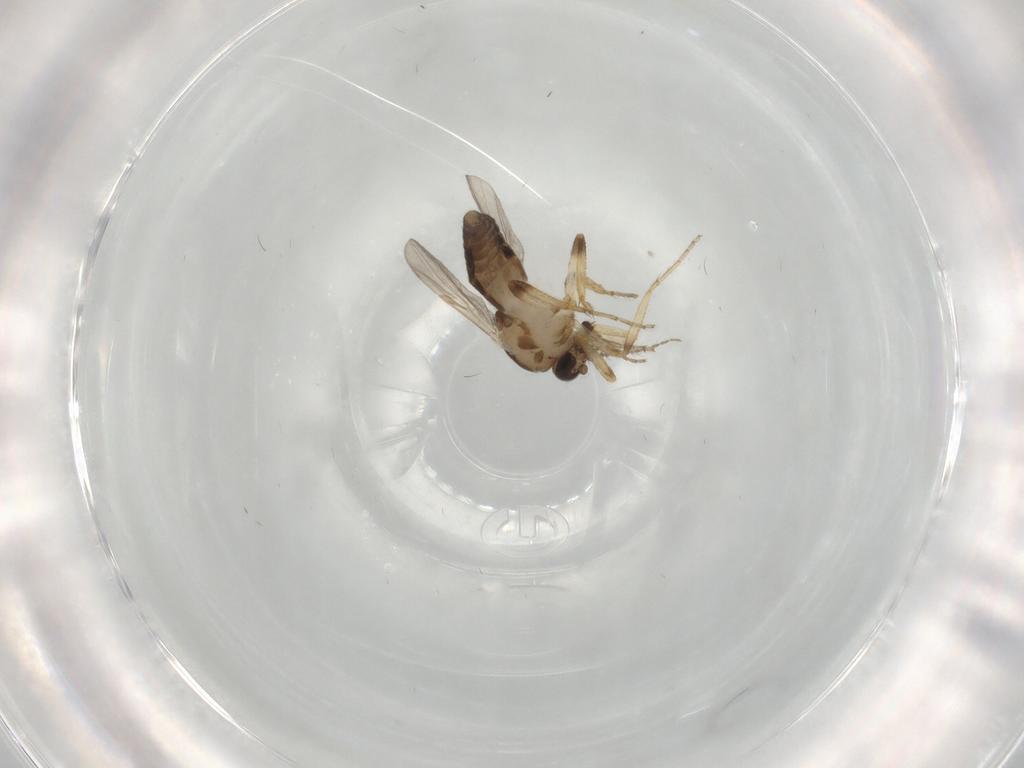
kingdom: Animalia
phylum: Arthropoda
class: Insecta
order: Diptera
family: Ceratopogonidae
